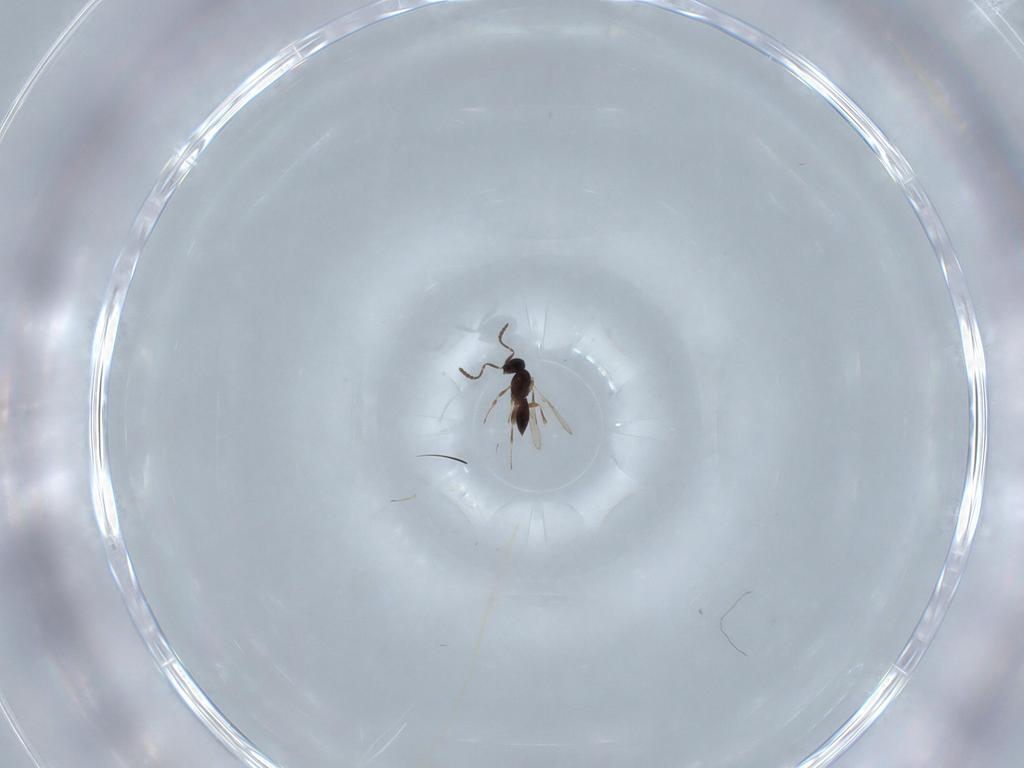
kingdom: Animalia
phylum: Arthropoda
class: Insecta
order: Hymenoptera
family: Scelionidae
